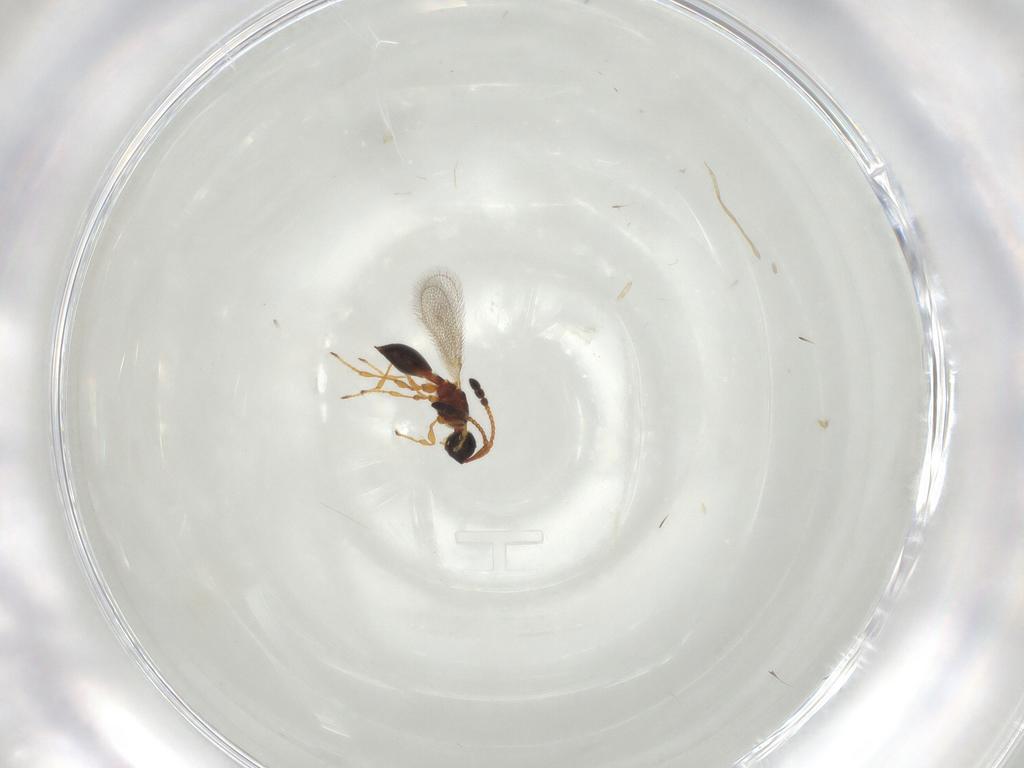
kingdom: Animalia
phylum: Arthropoda
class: Insecta
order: Hymenoptera
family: Diapriidae
